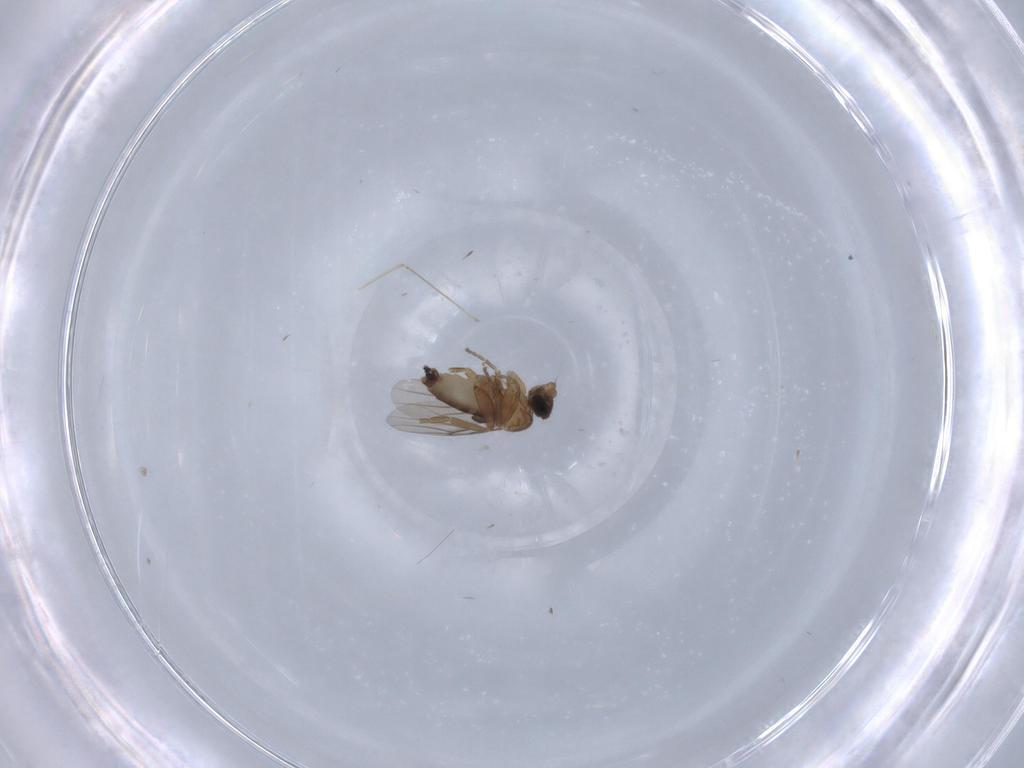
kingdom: Animalia
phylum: Arthropoda
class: Insecta
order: Diptera
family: Phoridae
